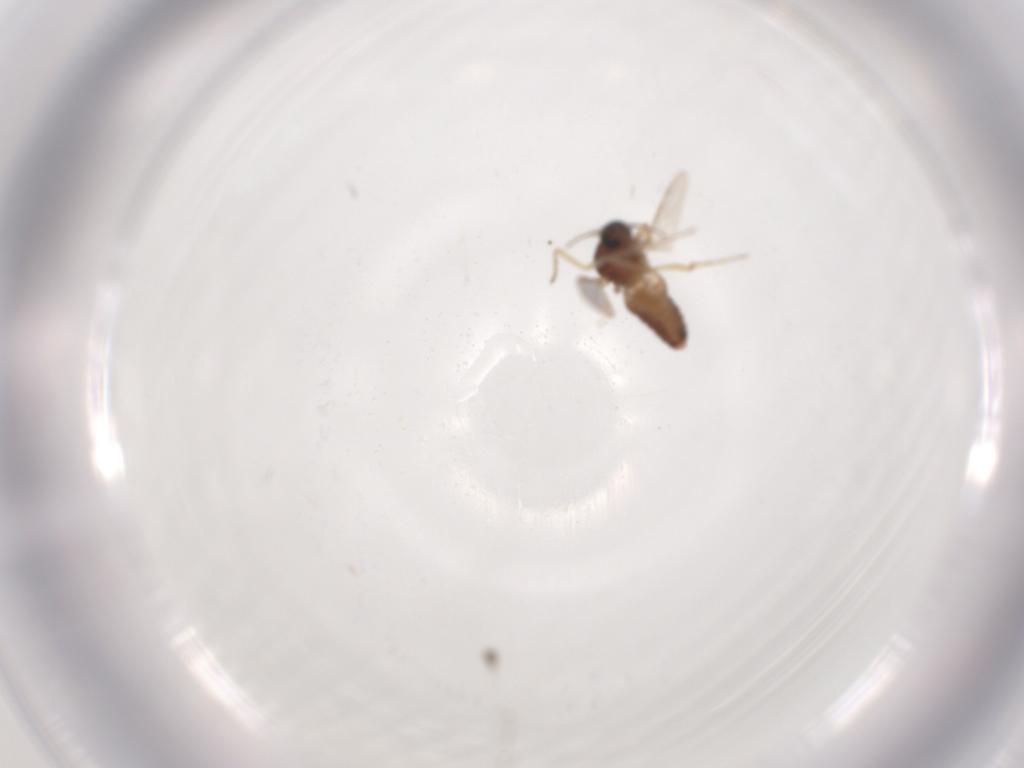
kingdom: Animalia
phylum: Arthropoda
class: Insecta
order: Diptera
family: Ceratopogonidae
